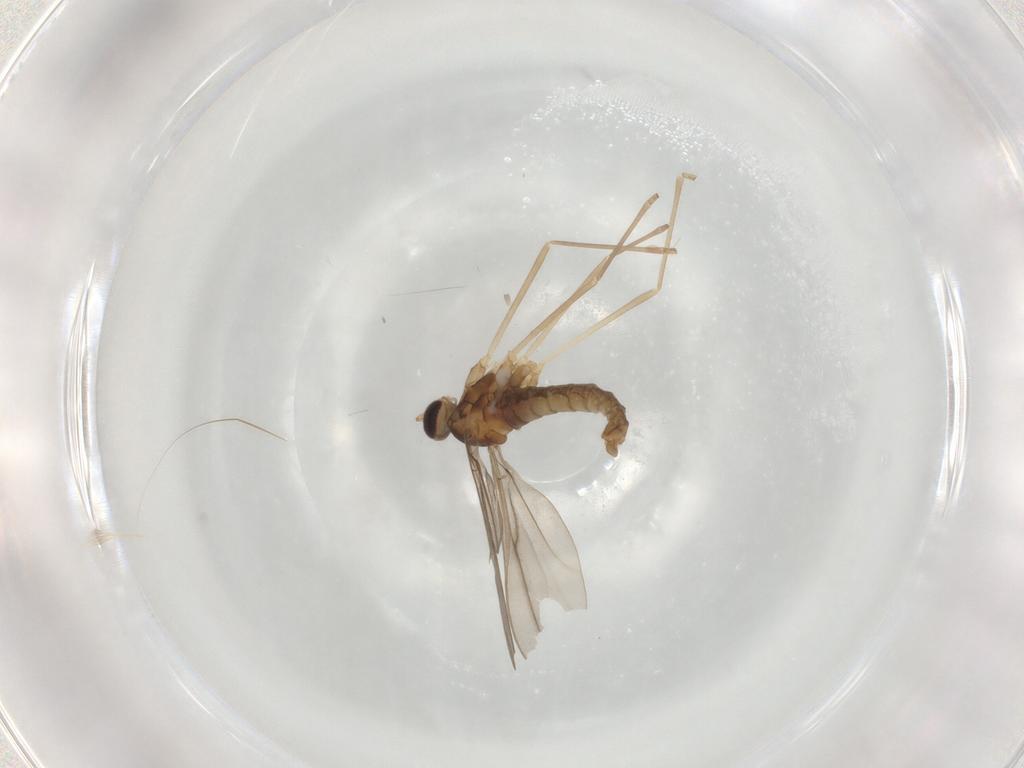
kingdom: Animalia
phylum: Arthropoda
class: Insecta
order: Diptera
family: Cecidomyiidae
